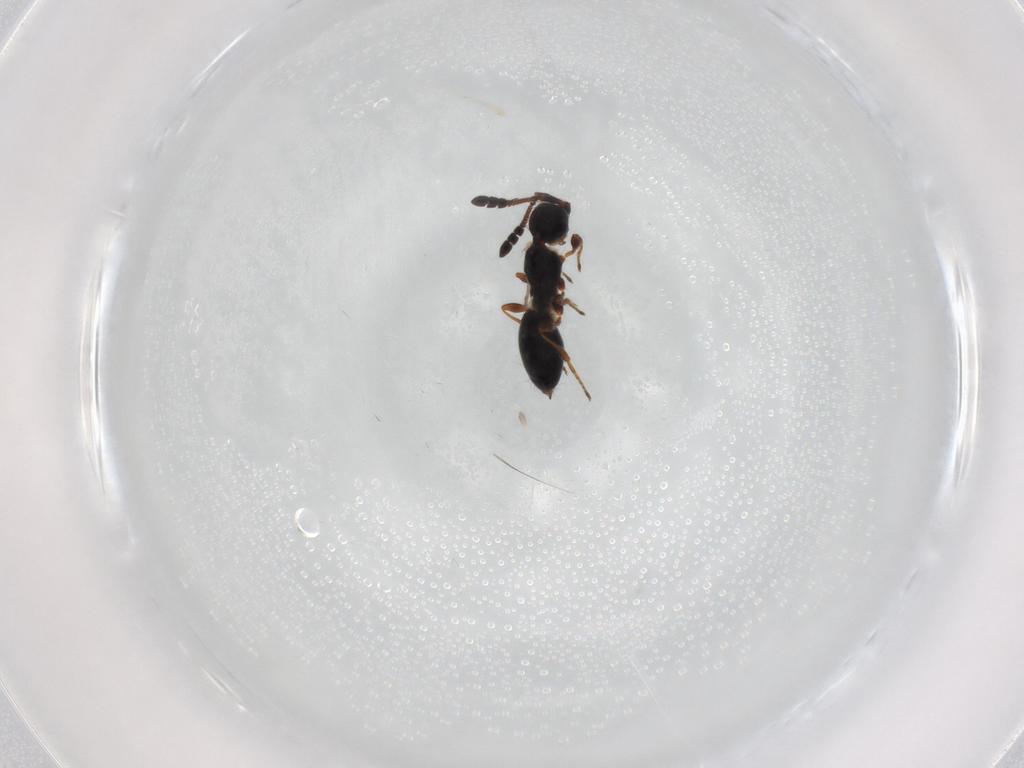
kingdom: Animalia
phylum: Arthropoda
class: Insecta
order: Hymenoptera
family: Diapriidae
